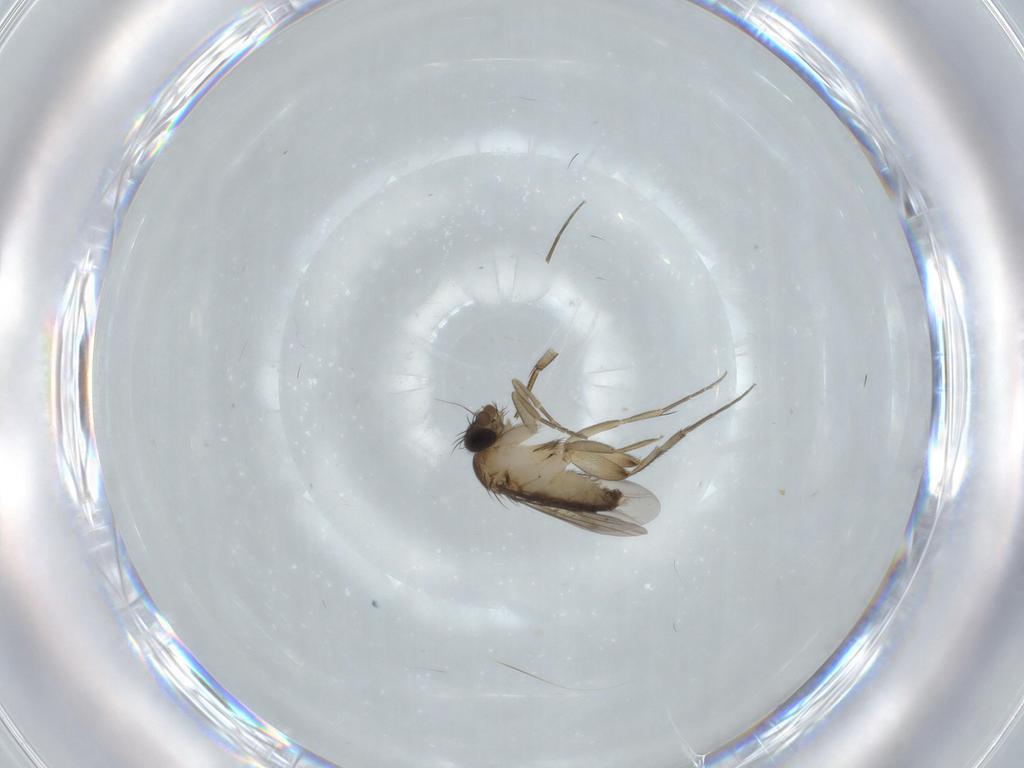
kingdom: Animalia
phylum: Arthropoda
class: Insecta
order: Diptera
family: Phoridae
